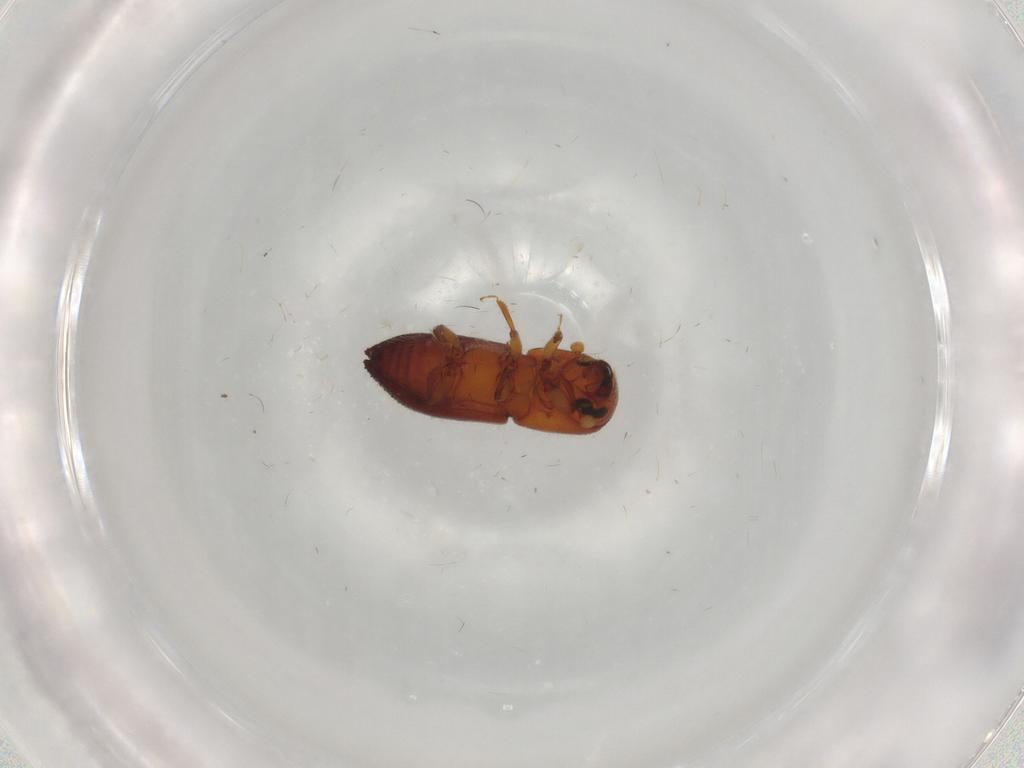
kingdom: Animalia
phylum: Arthropoda
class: Insecta
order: Coleoptera
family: Curculionidae
